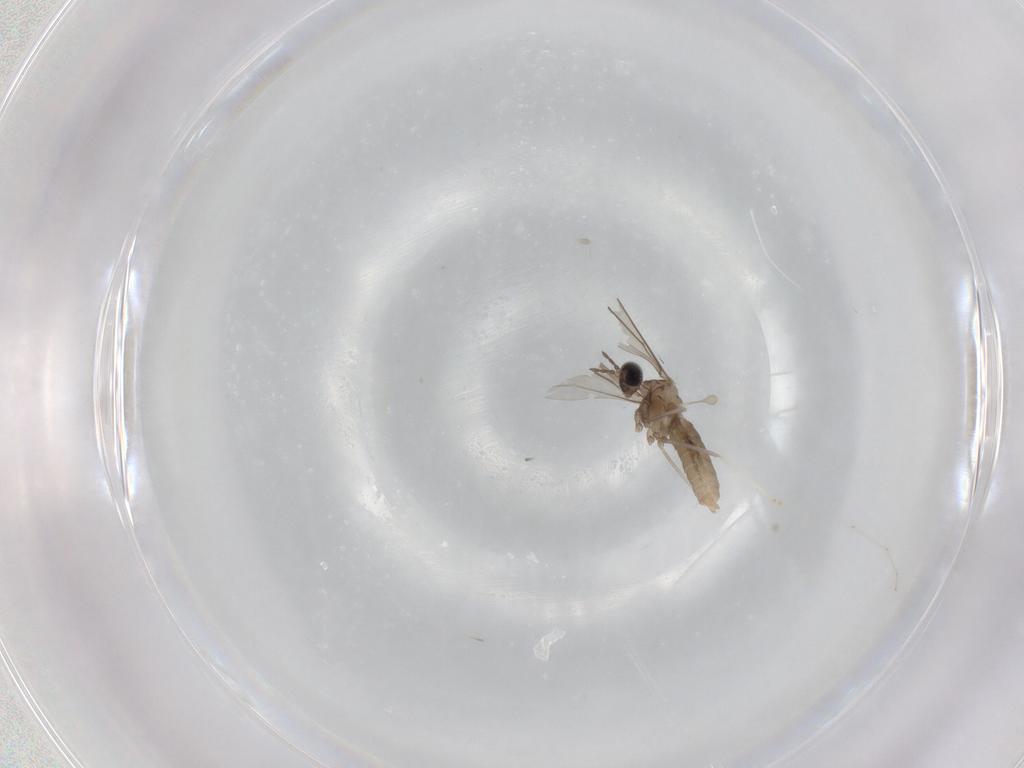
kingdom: Animalia
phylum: Arthropoda
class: Insecta
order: Diptera
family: Cecidomyiidae
